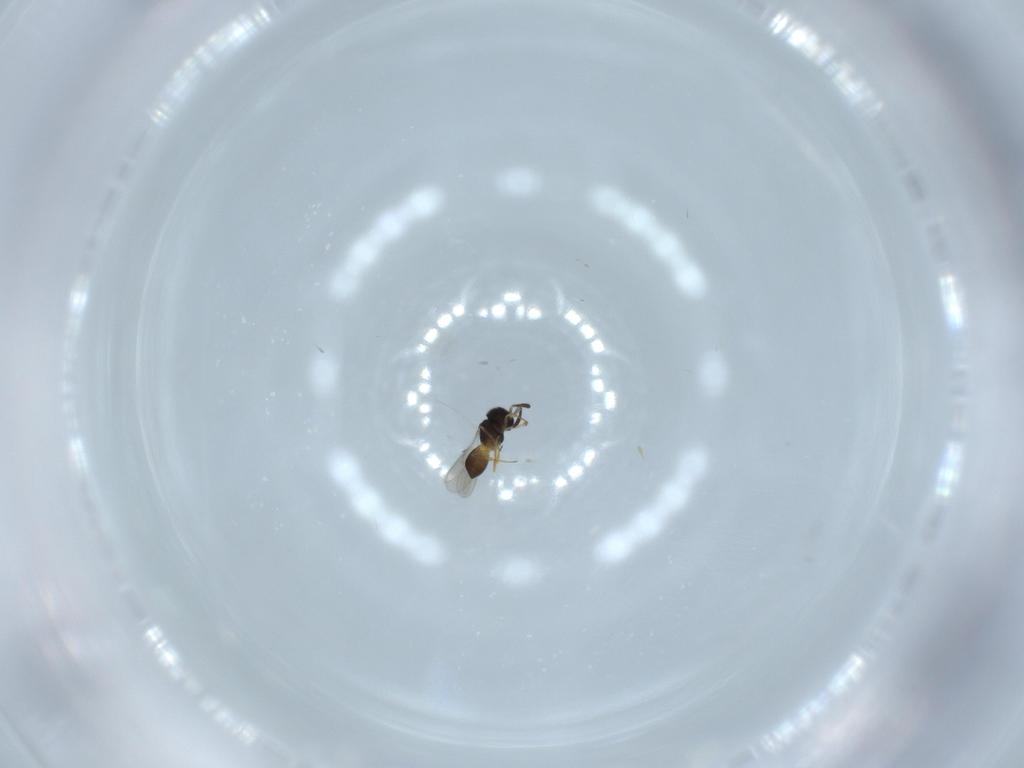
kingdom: Animalia
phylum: Arthropoda
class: Insecta
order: Hymenoptera
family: Scelionidae
